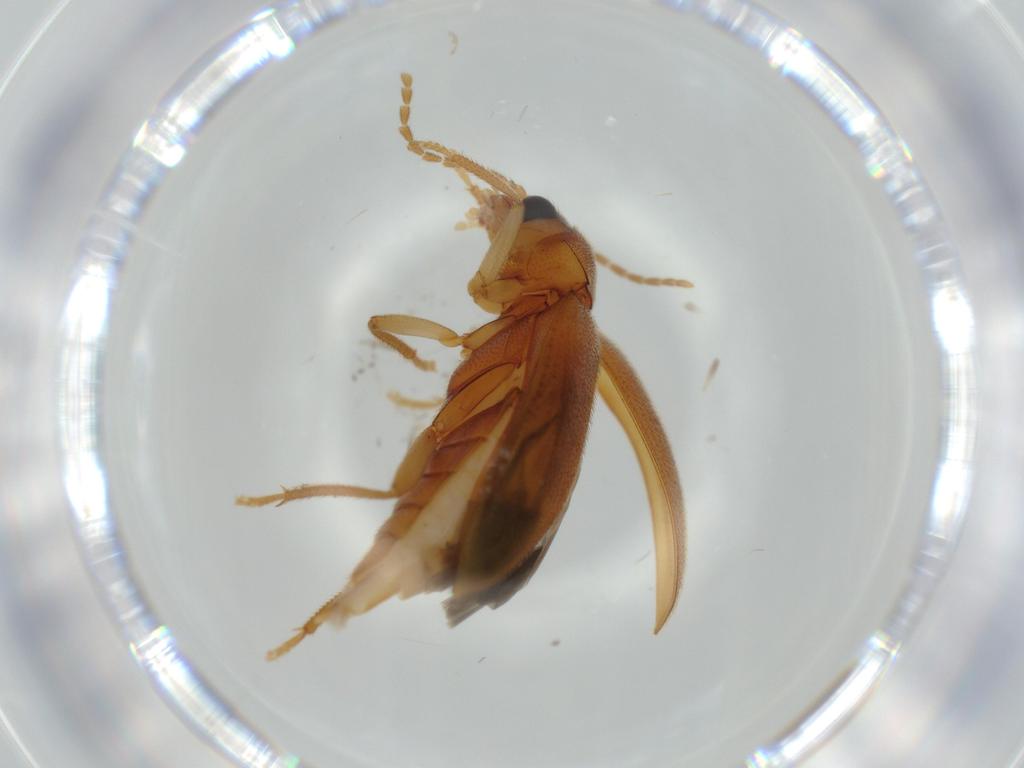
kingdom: Animalia
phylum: Arthropoda
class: Insecta
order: Coleoptera
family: Ptilodactylidae
